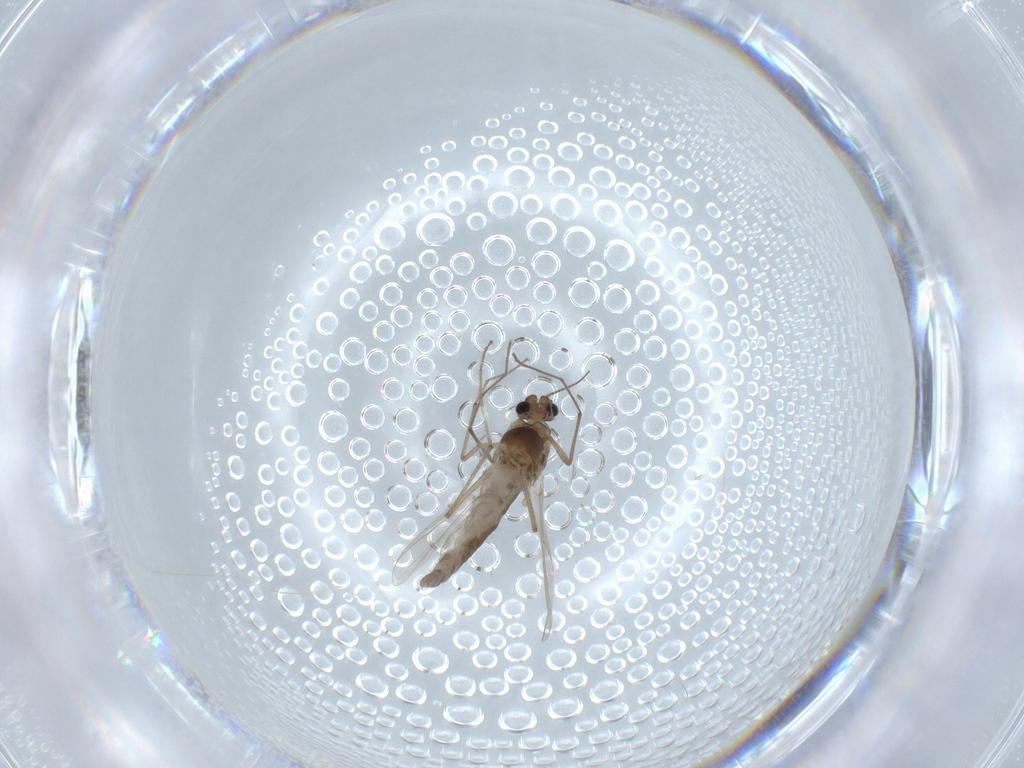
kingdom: Animalia
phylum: Arthropoda
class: Insecta
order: Diptera
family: Chironomidae
